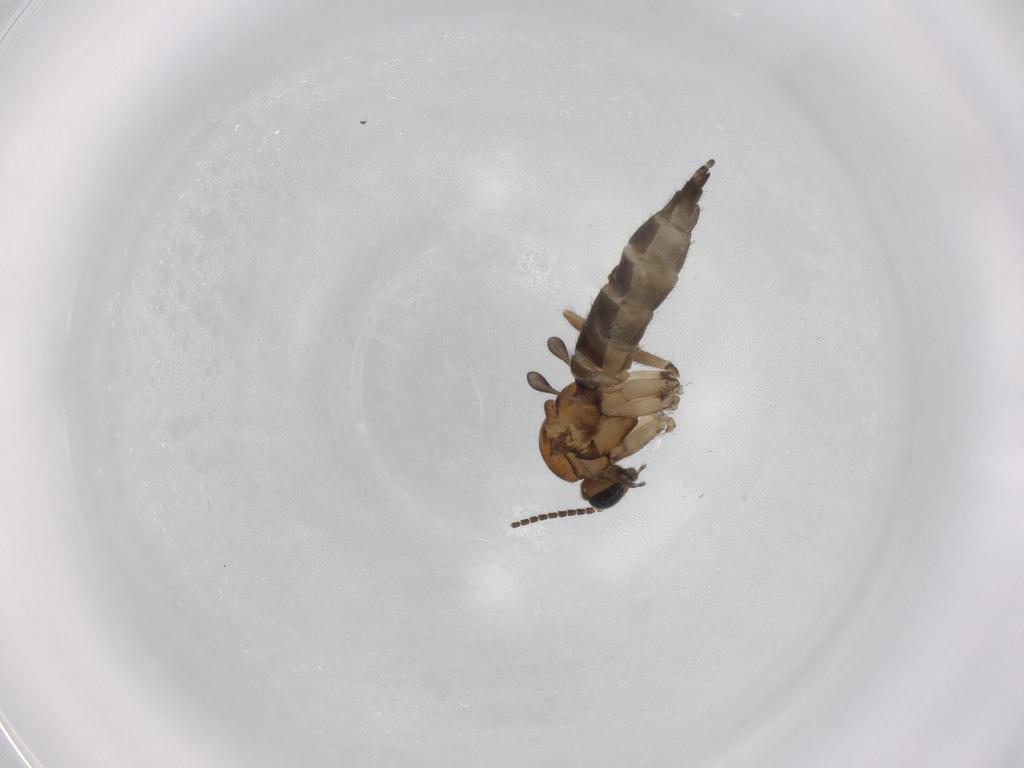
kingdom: Animalia
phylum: Arthropoda
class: Insecta
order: Diptera
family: Sciaridae
